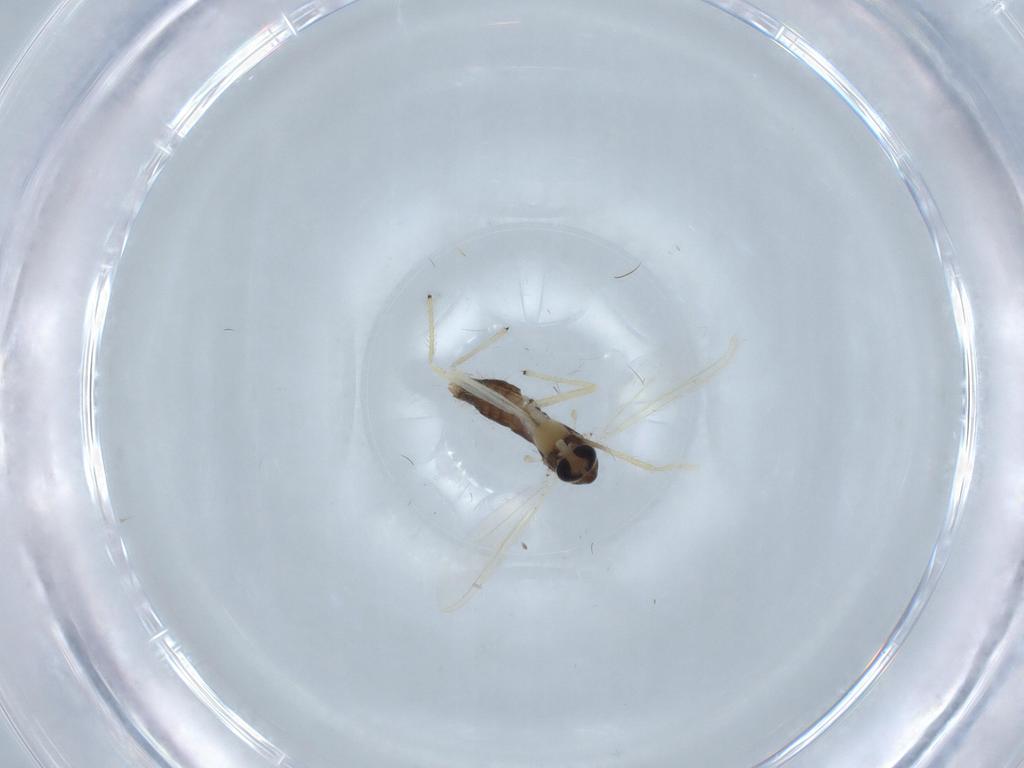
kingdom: Animalia
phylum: Arthropoda
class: Insecta
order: Diptera
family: Chironomidae
